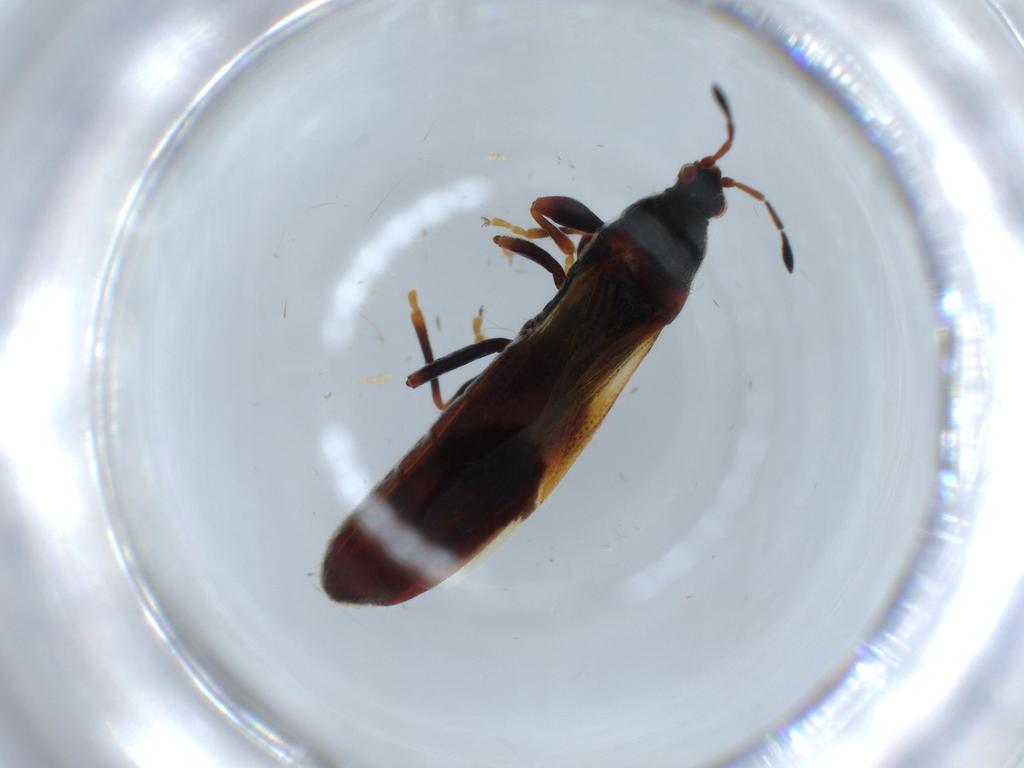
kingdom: Animalia
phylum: Arthropoda
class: Insecta
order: Hemiptera
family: Blissidae
